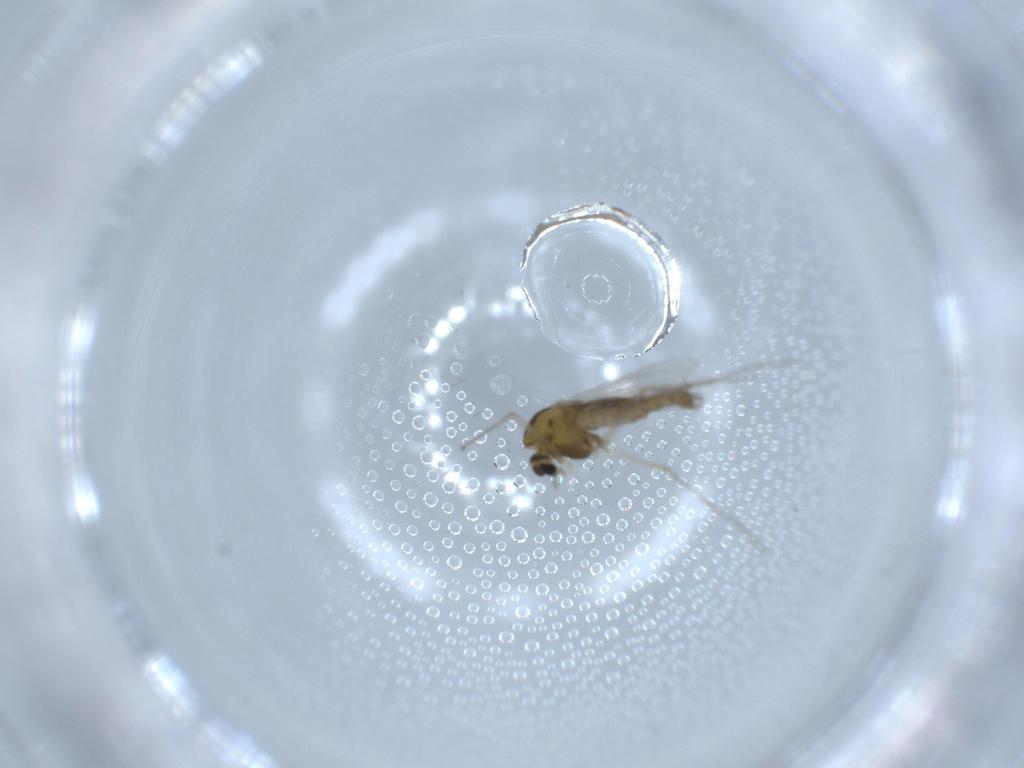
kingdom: Animalia
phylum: Arthropoda
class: Insecta
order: Diptera
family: Chironomidae
